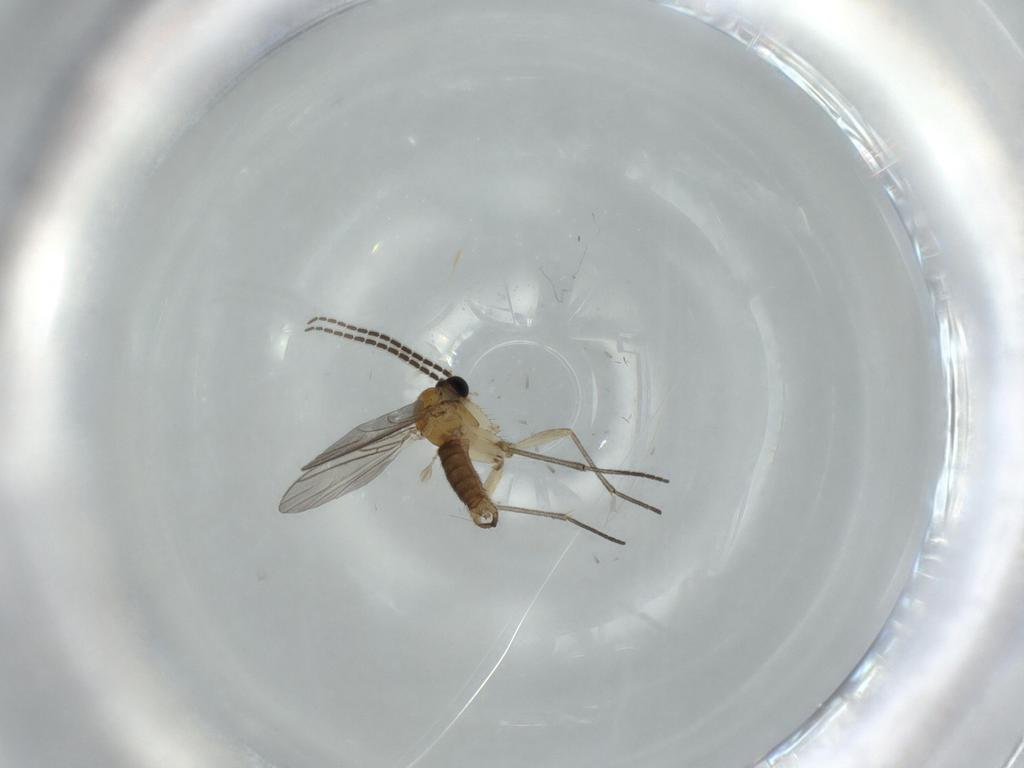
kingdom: Animalia
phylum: Arthropoda
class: Insecta
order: Diptera
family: Sciaridae
